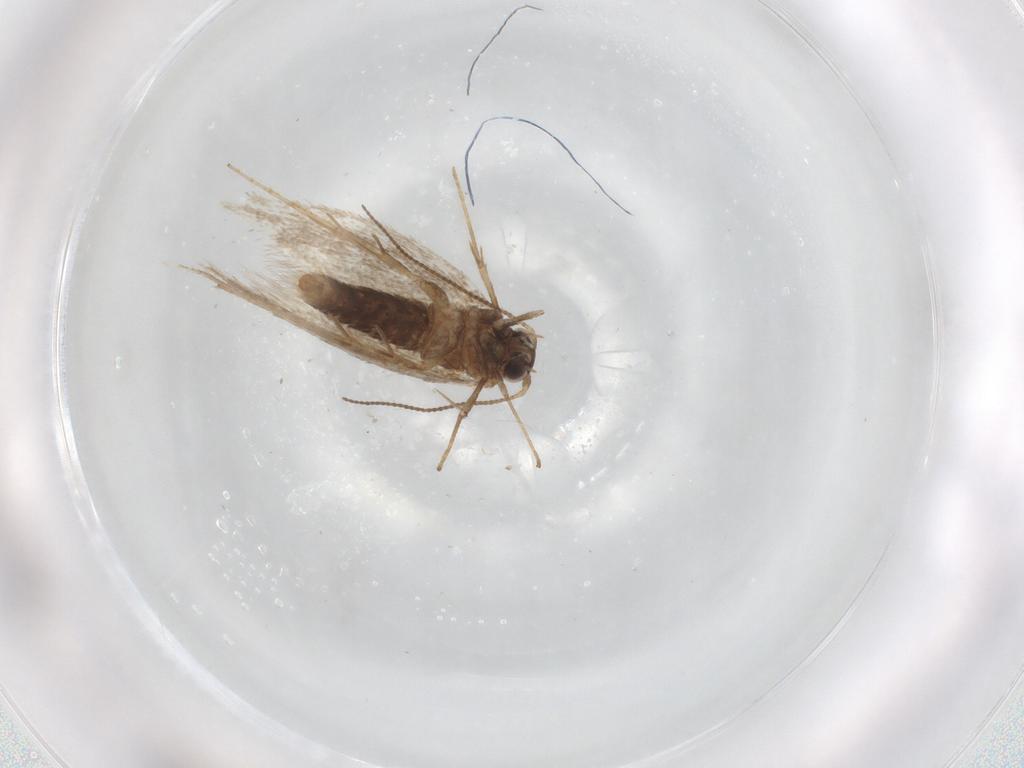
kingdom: Animalia
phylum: Arthropoda
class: Insecta
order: Lepidoptera
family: Nepticulidae
